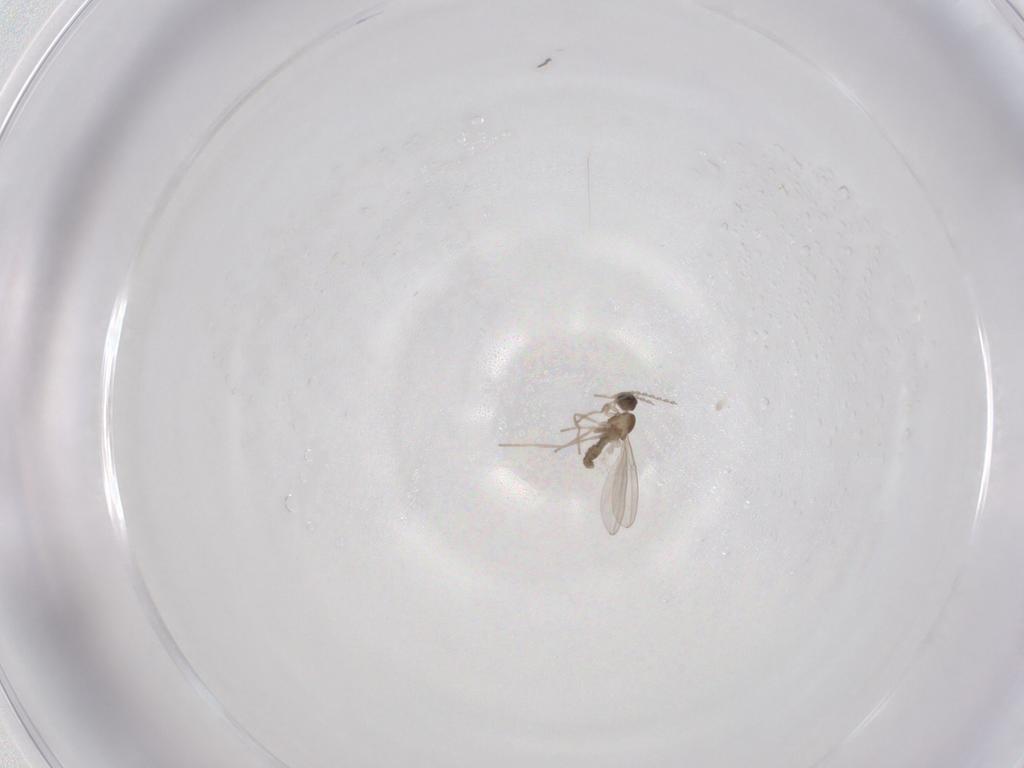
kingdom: Animalia
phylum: Arthropoda
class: Insecta
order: Diptera
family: Cecidomyiidae
